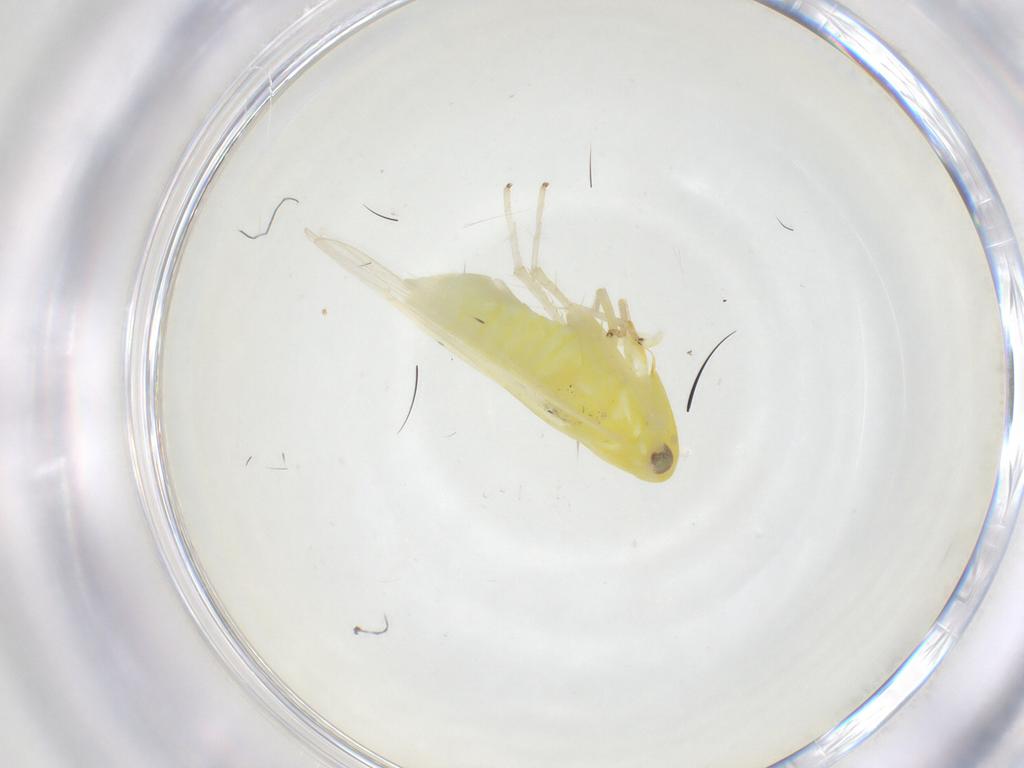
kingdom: Animalia
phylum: Arthropoda
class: Insecta
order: Hemiptera
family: Cicadellidae
